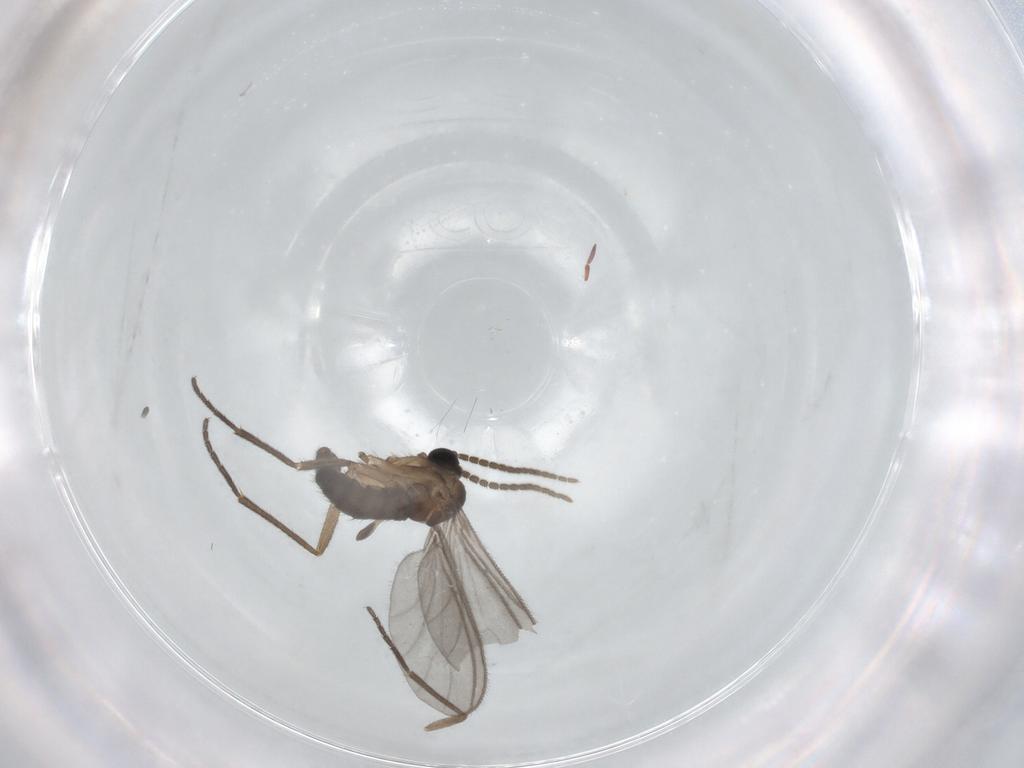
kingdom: Animalia
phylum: Arthropoda
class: Insecta
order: Diptera
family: Sciaridae
